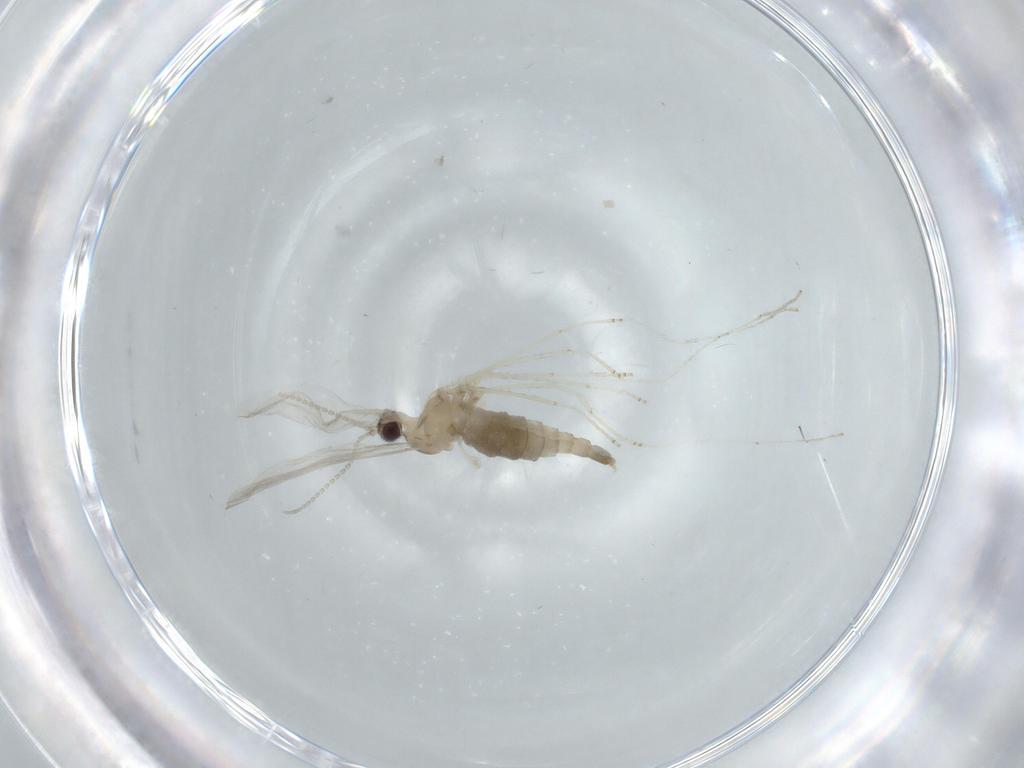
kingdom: Animalia
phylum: Arthropoda
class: Insecta
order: Diptera
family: Cecidomyiidae
